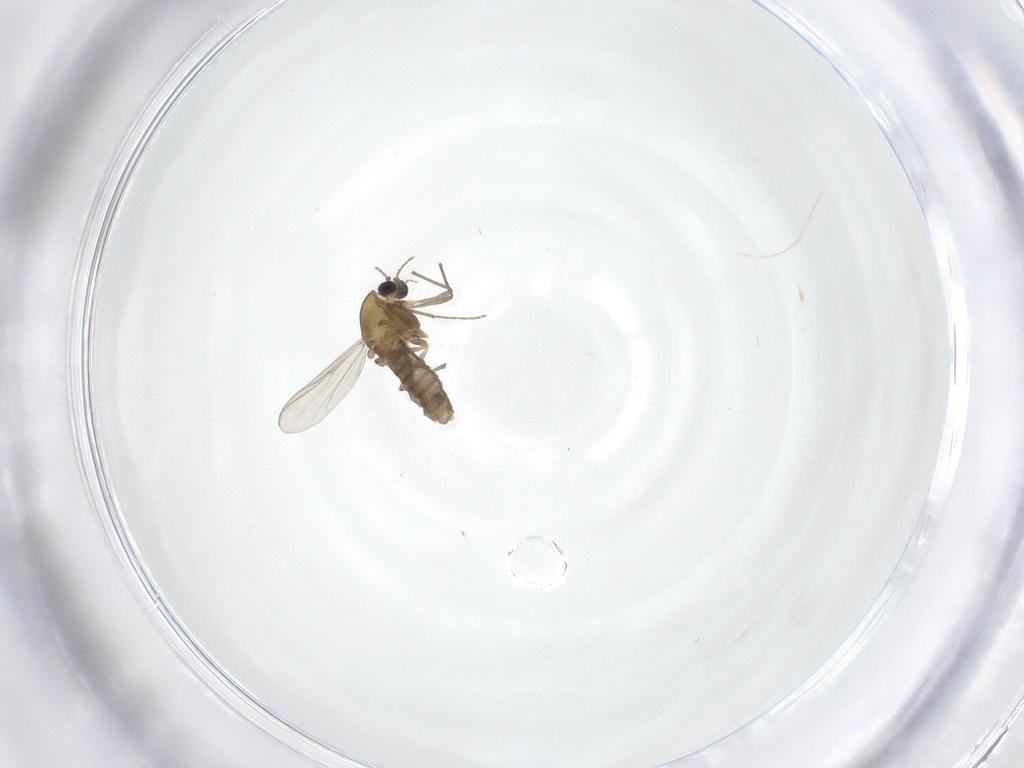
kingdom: Animalia
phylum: Arthropoda
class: Insecta
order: Diptera
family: Chironomidae
